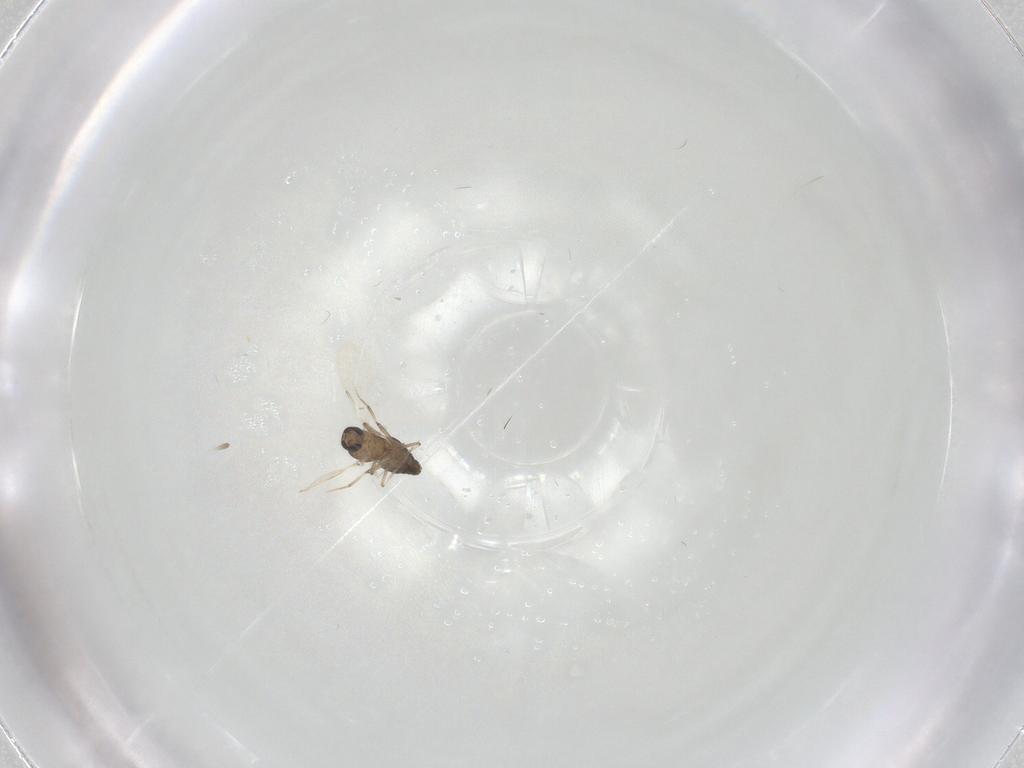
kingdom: Animalia
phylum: Arthropoda
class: Insecta
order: Diptera
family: Ceratopogonidae
